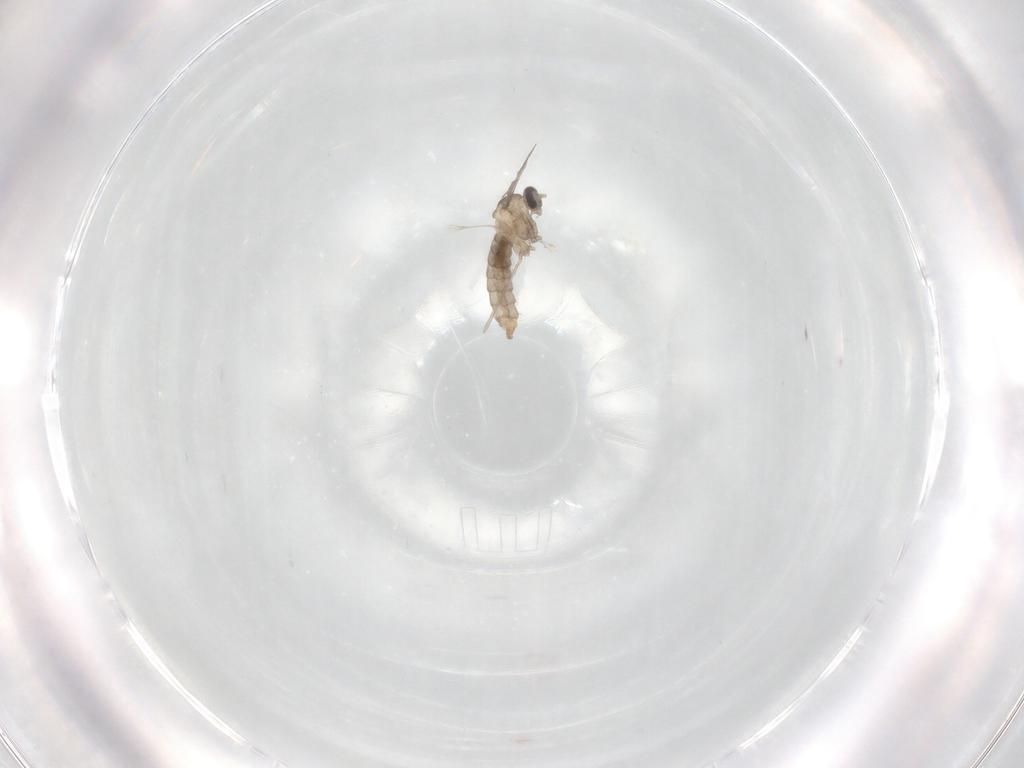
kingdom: Animalia
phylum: Arthropoda
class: Insecta
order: Diptera
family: Cecidomyiidae
